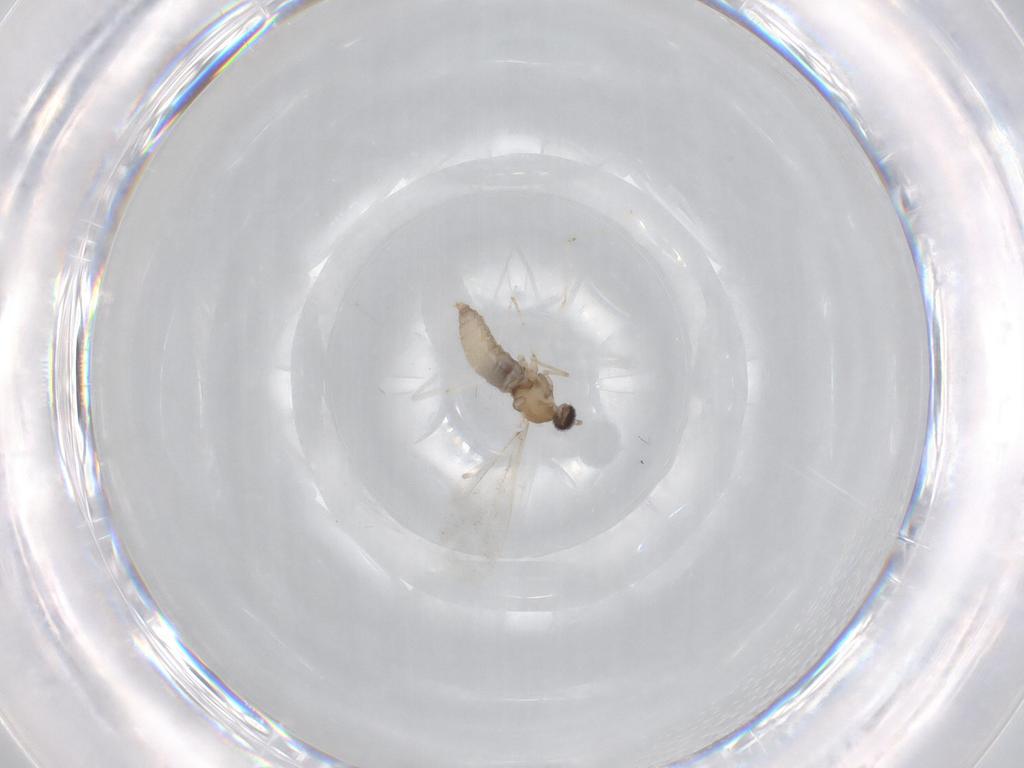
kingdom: Animalia
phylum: Arthropoda
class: Insecta
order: Diptera
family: Cecidomyiidae
